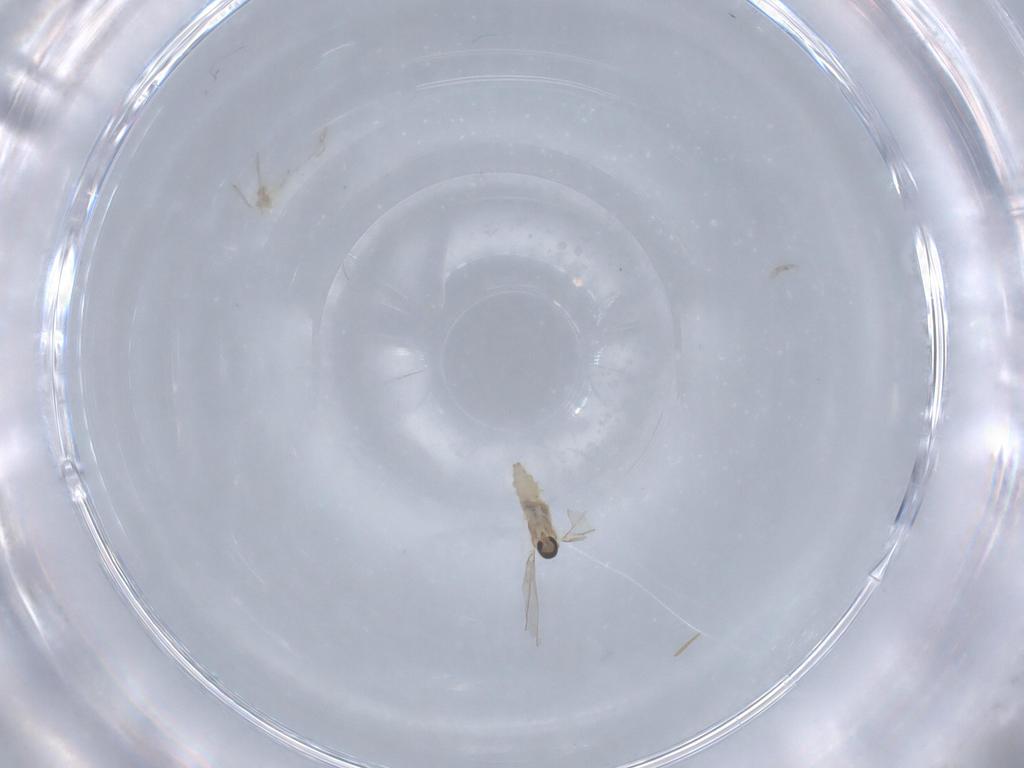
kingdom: Animalia
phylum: Arthropoda
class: Insecta
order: Diptera
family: Cecidomyiidae
